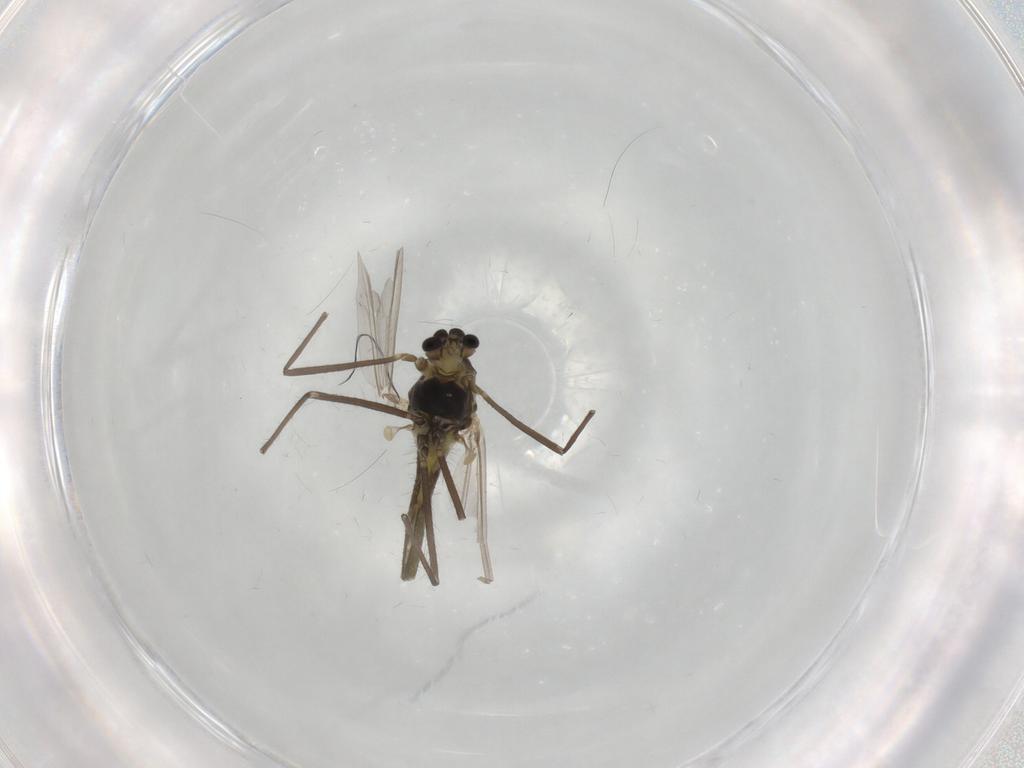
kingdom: Animalia
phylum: Arthropoda
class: Insecta
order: Diptera
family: Chironomidae
